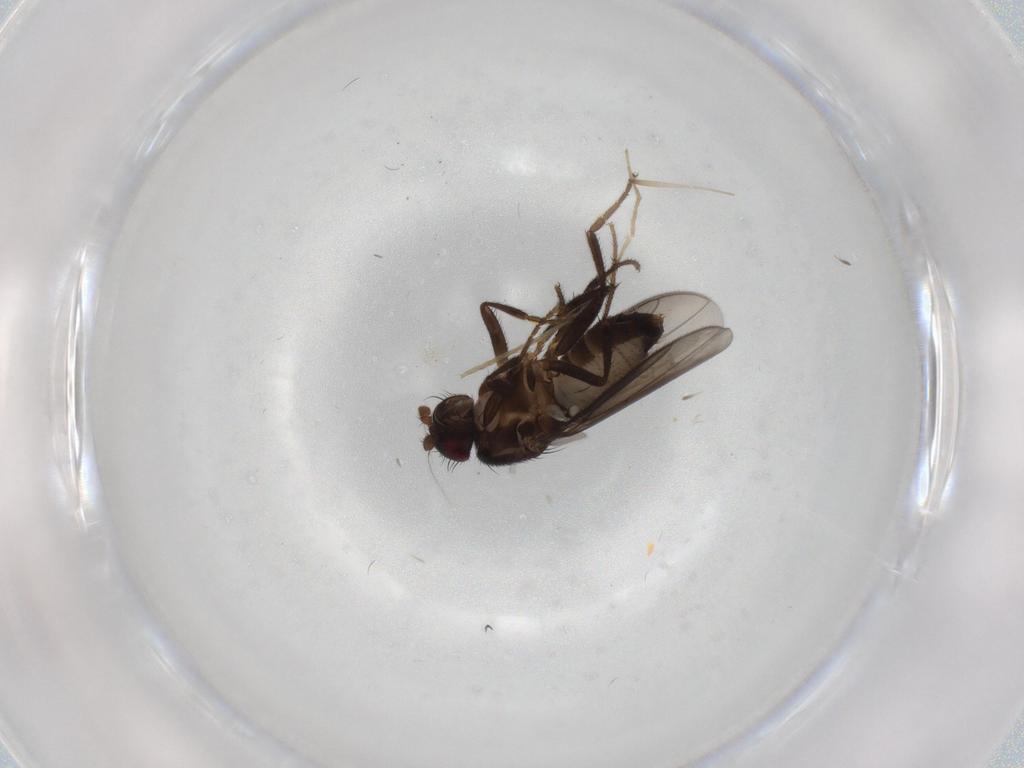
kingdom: Animalia
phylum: Arthropoda
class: Insecta
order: Diptera
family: Sphaeroceridae
